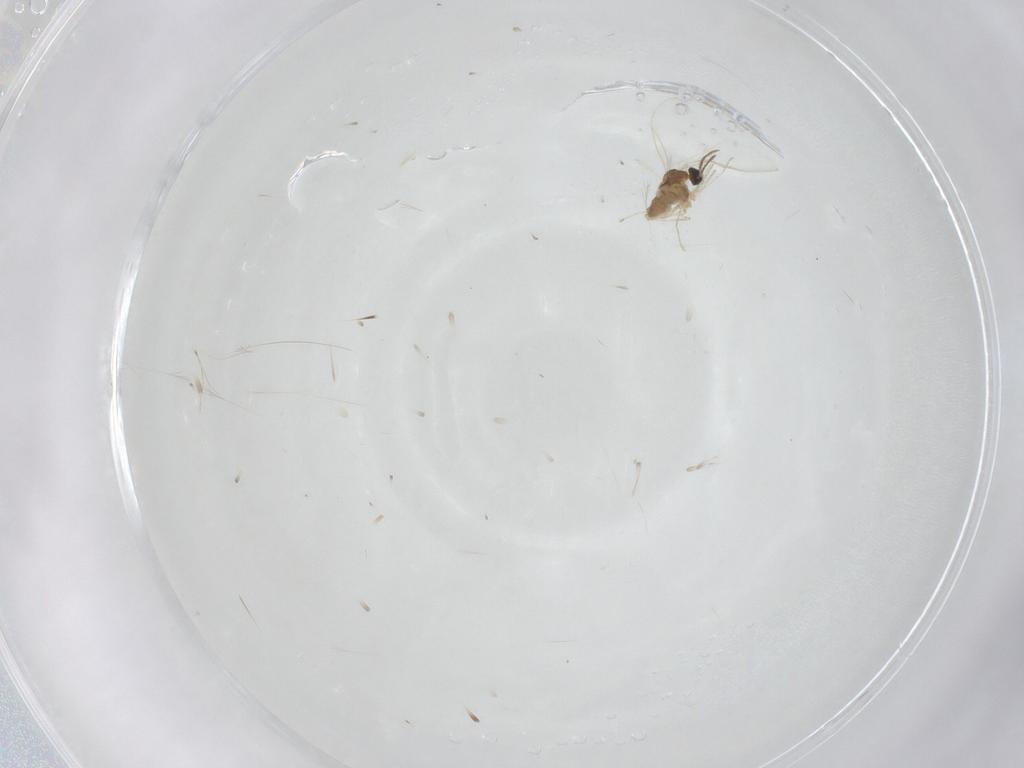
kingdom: Animalia
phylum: Arthropoda
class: Insecta
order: Diptera
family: Cecidomyiidae
